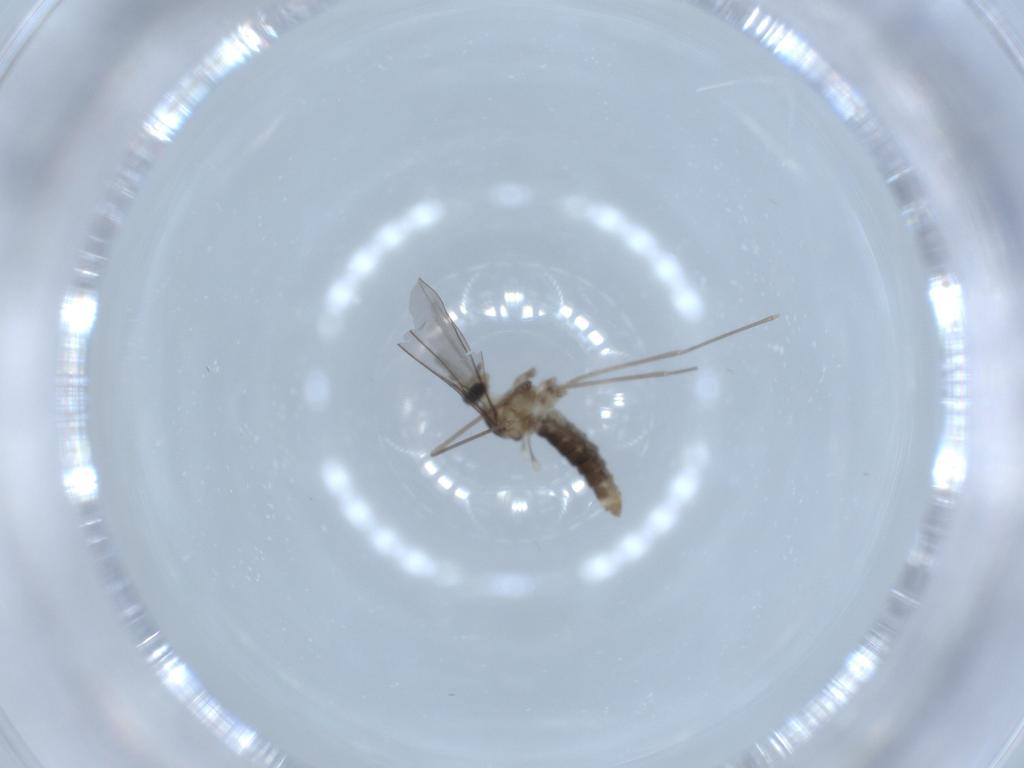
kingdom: Animalia
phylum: Arthropoda
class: Insecta
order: Diptera
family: Cecidomyiidae
